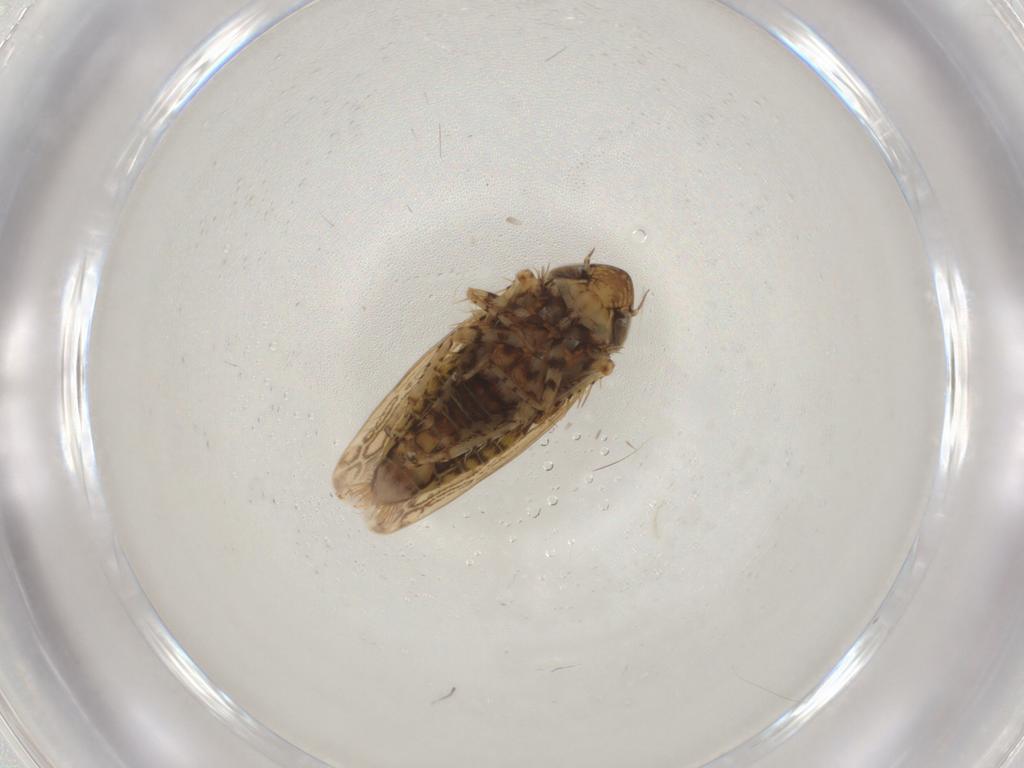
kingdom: Animalia
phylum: Arthropoda
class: Insecta
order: Hemiptera
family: Cicadellidae
